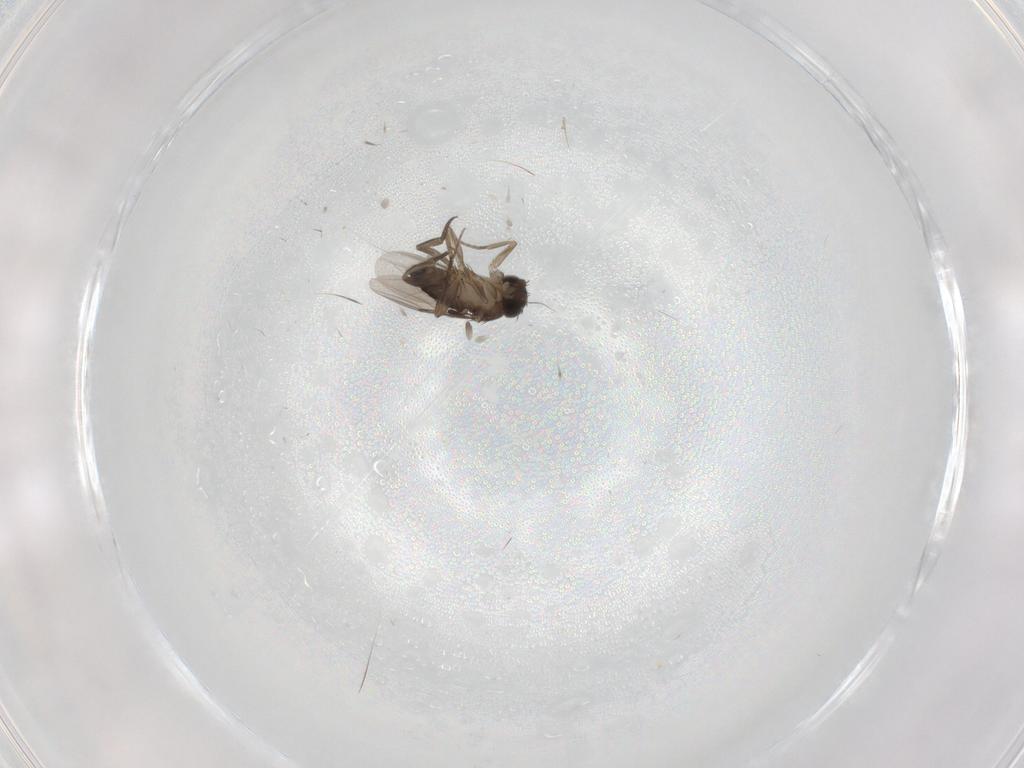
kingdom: Animalia
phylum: Arthropoda
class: Insecta
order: Diptera
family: Phoridae
